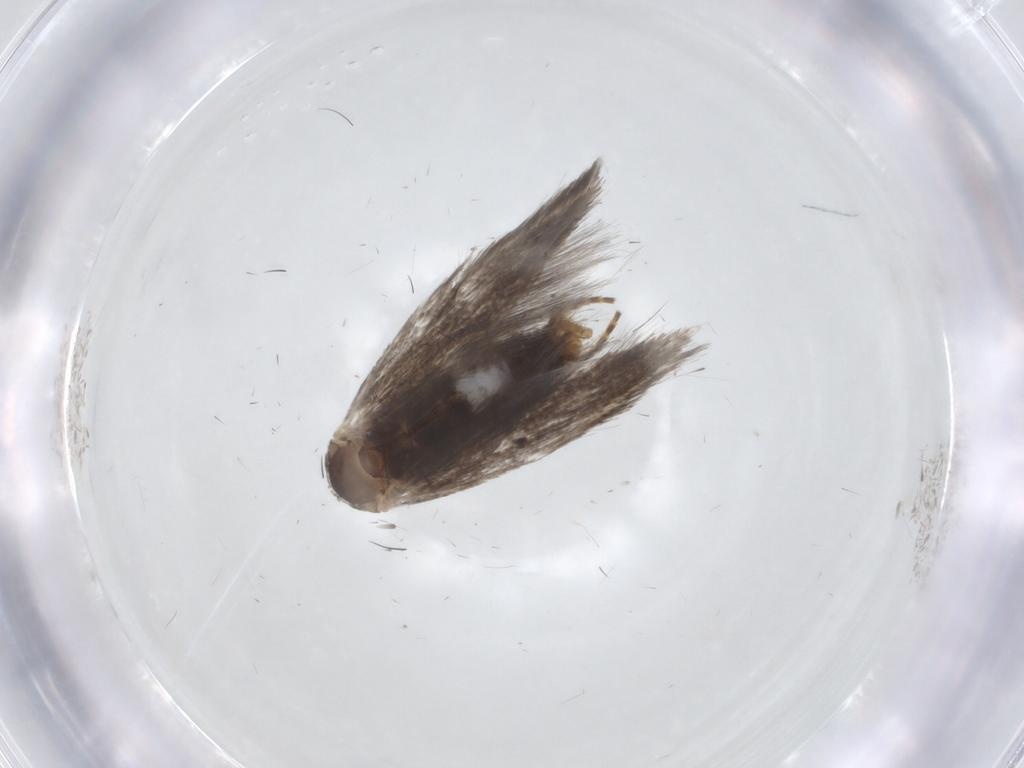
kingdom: Animalia
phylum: Arthropoda
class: Insecta
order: Lepidoptera
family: Elachistidae
